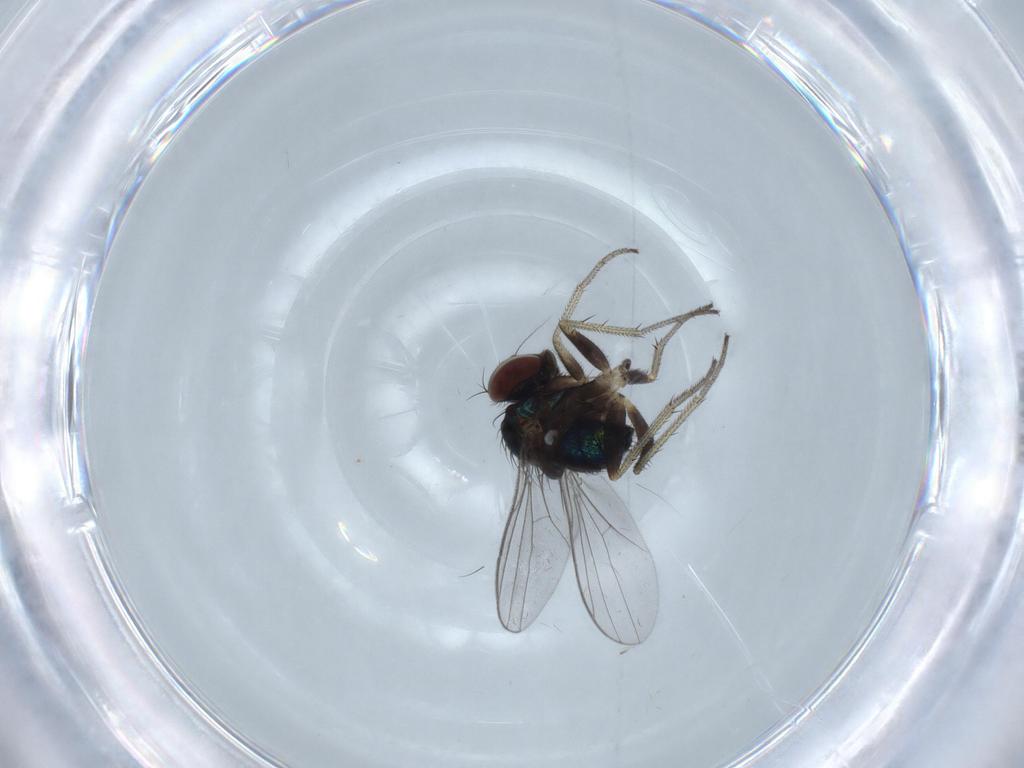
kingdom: Animalia
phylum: Arthropoda
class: Insecta
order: Diptera
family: Dolichopodidae
